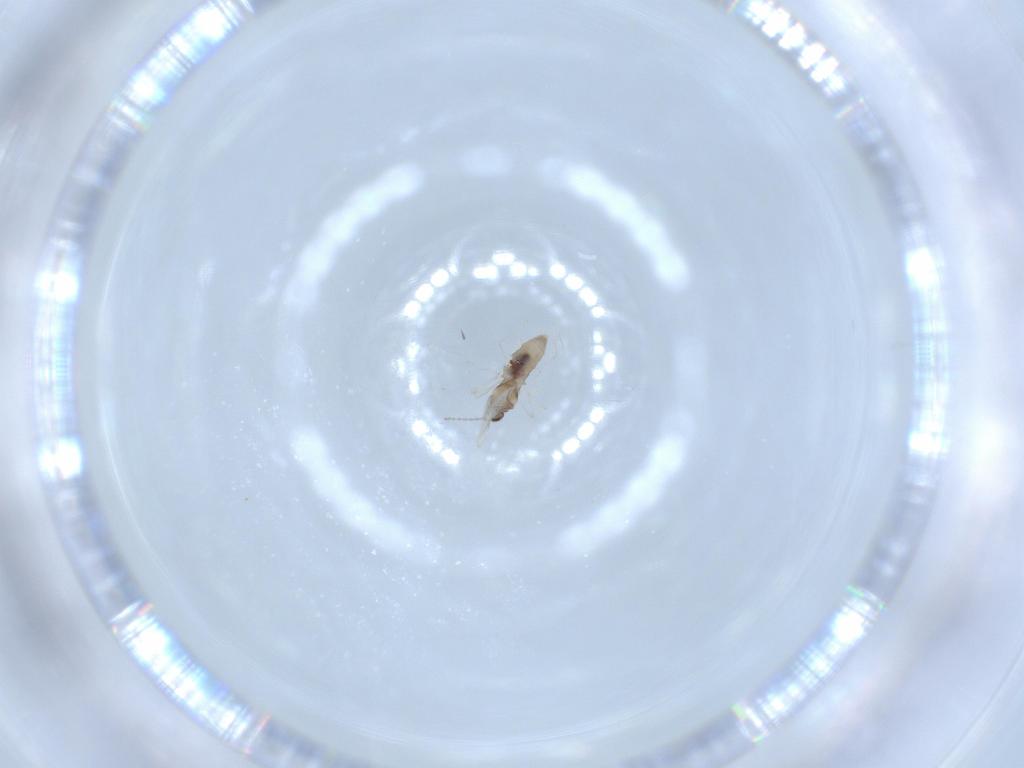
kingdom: Animalia
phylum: Arthropoda
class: Insecta
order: Diptera
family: Cecidomyiidae
